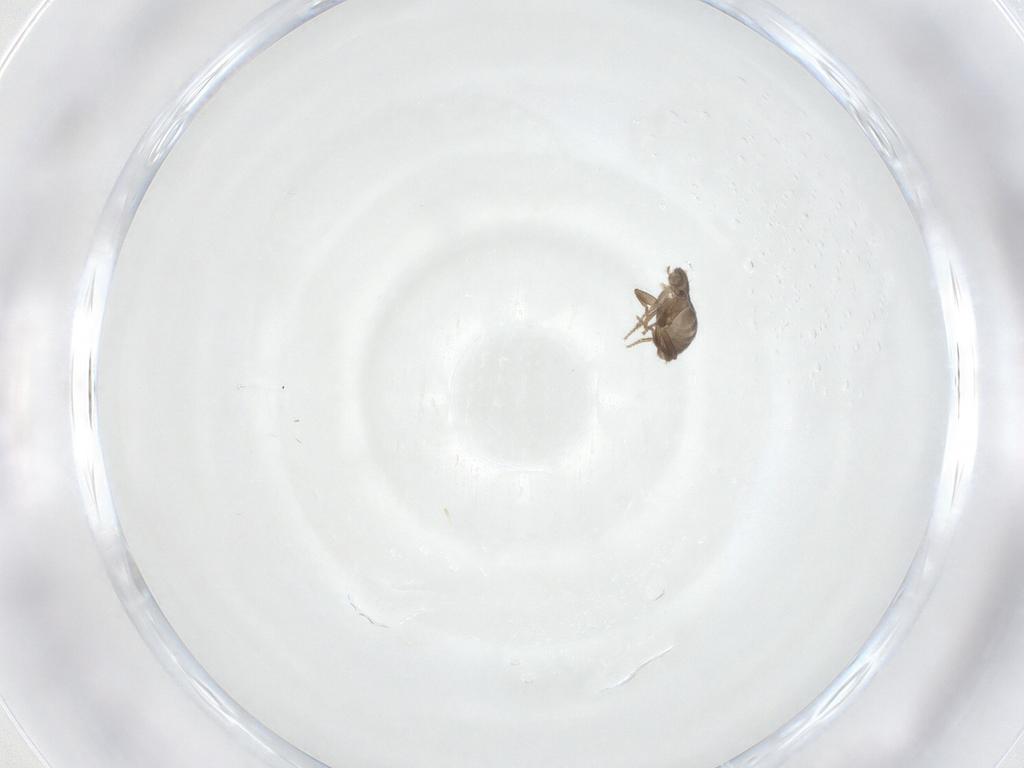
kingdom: Animalia
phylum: Arthropoda
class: Insecta
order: Diptera
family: Phoridae
